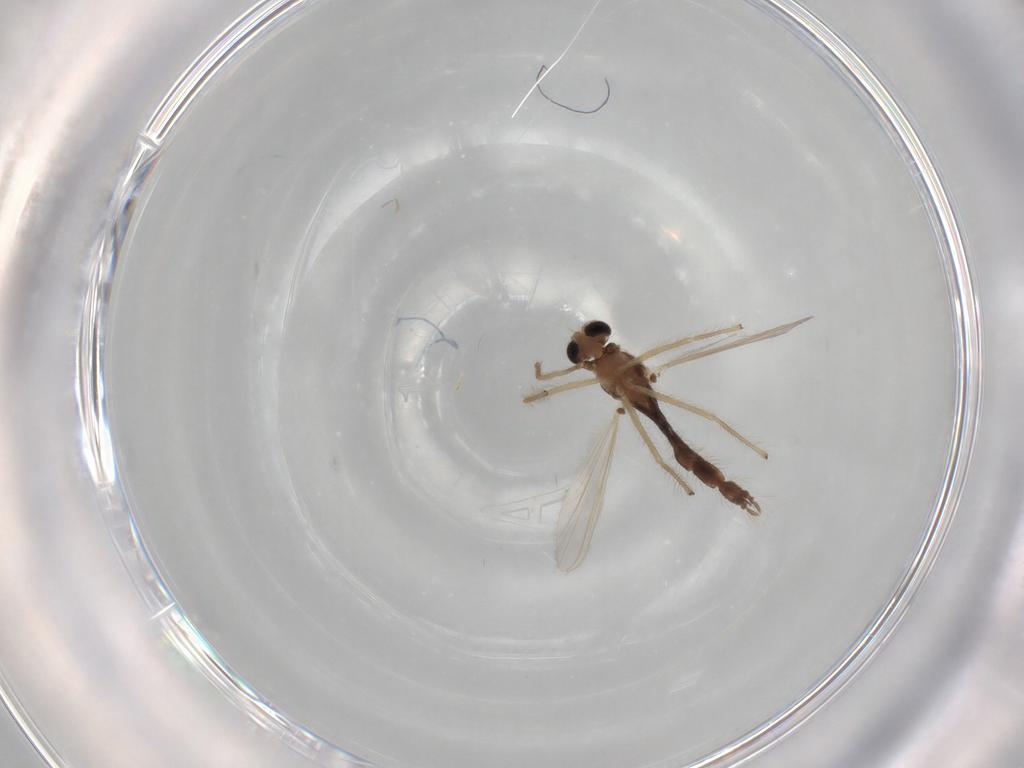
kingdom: Animalia
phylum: Arthropoda
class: Insecta
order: Diptera
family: Chironomidae
